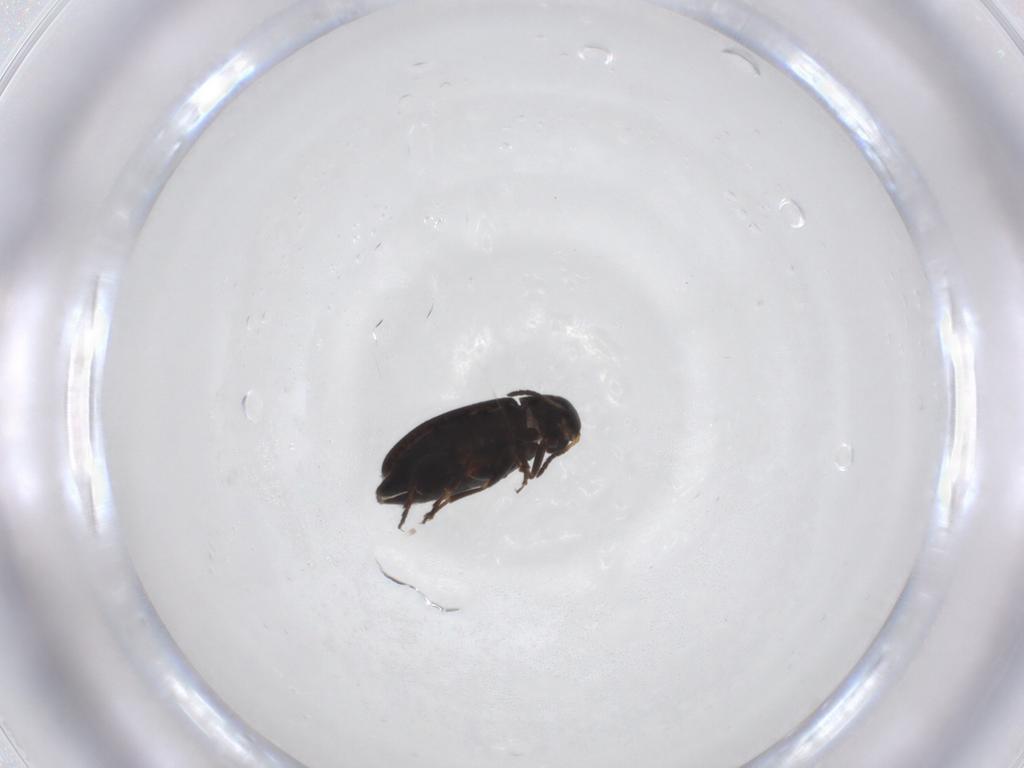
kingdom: Animalia
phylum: Arthropoda
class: Insecta
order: Coleoptera
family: Scraptiidae
